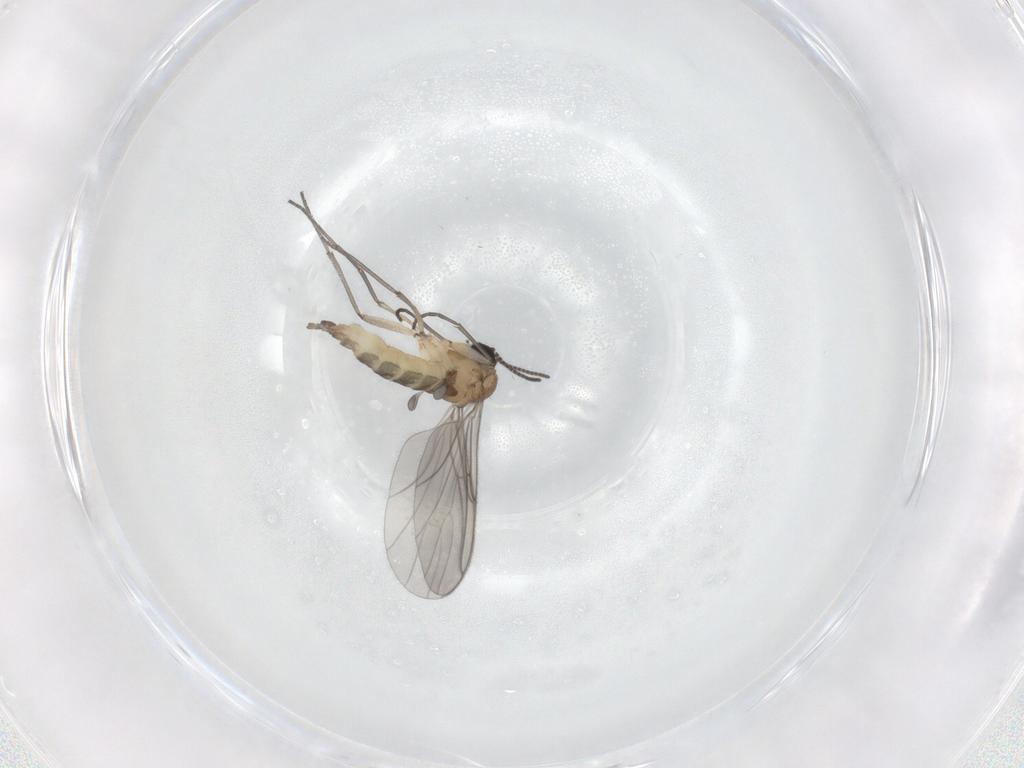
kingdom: Animalia
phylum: Arthropoda
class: Insecta
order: Diptera
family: Sciaridae
